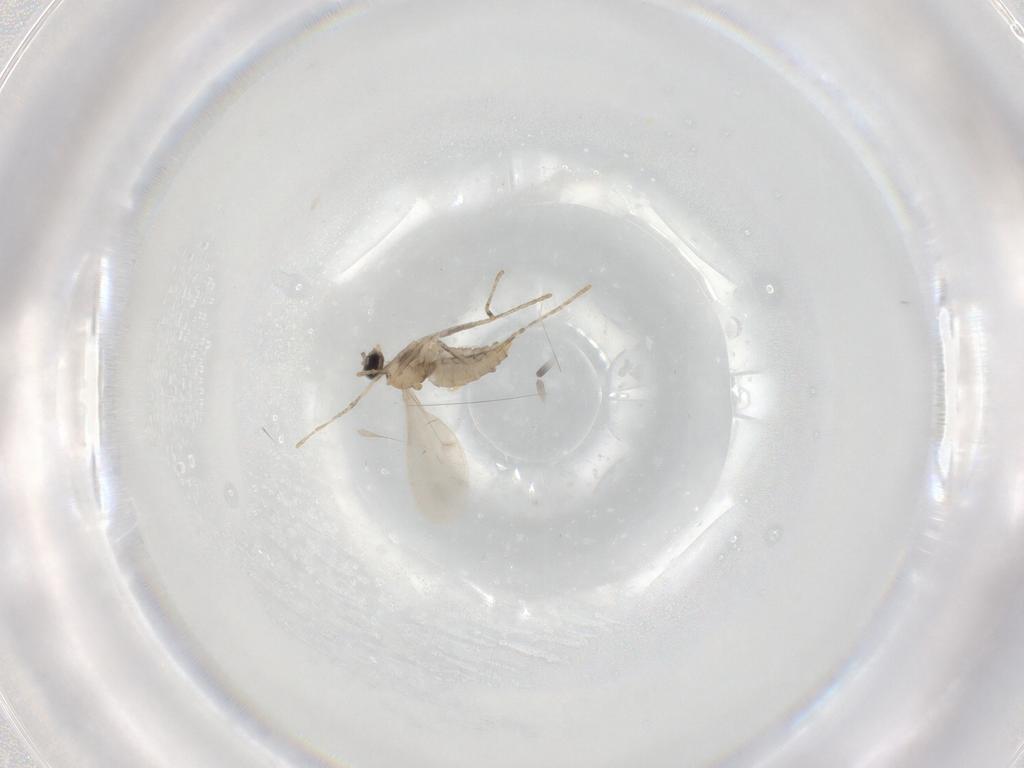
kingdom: Animalia
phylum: Arthropoda
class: Insecta
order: Diptera
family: Cecidomyiidae
